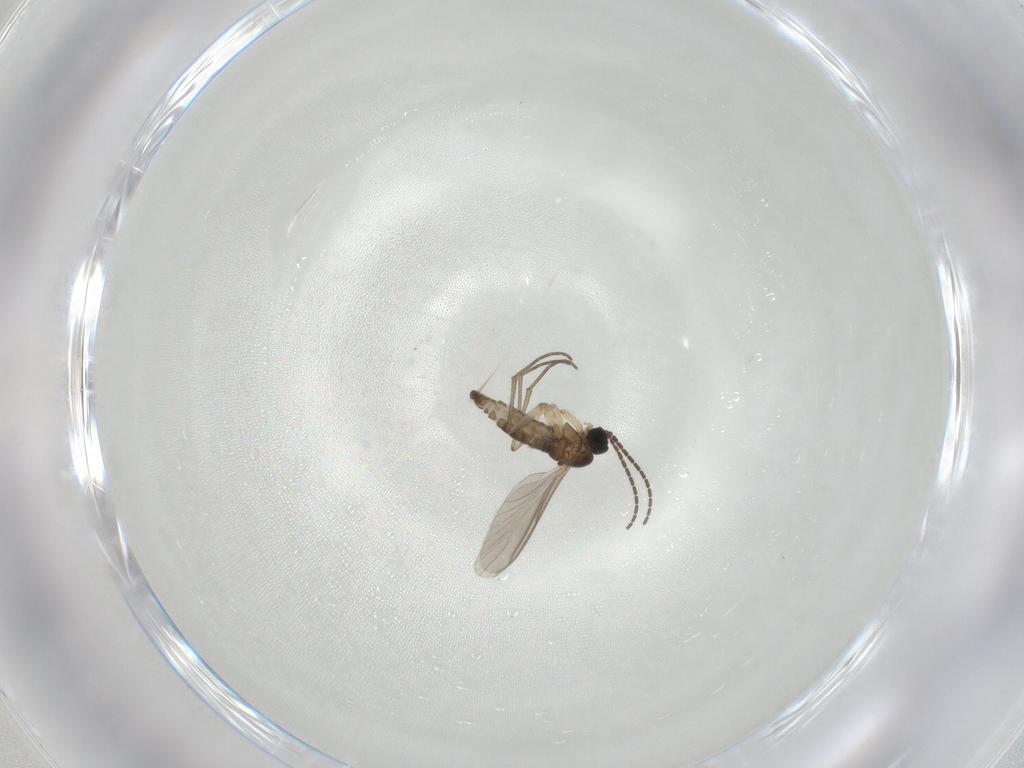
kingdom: Animalia
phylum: Arthropoda
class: Insecta
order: Diptera
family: Sciaridae
